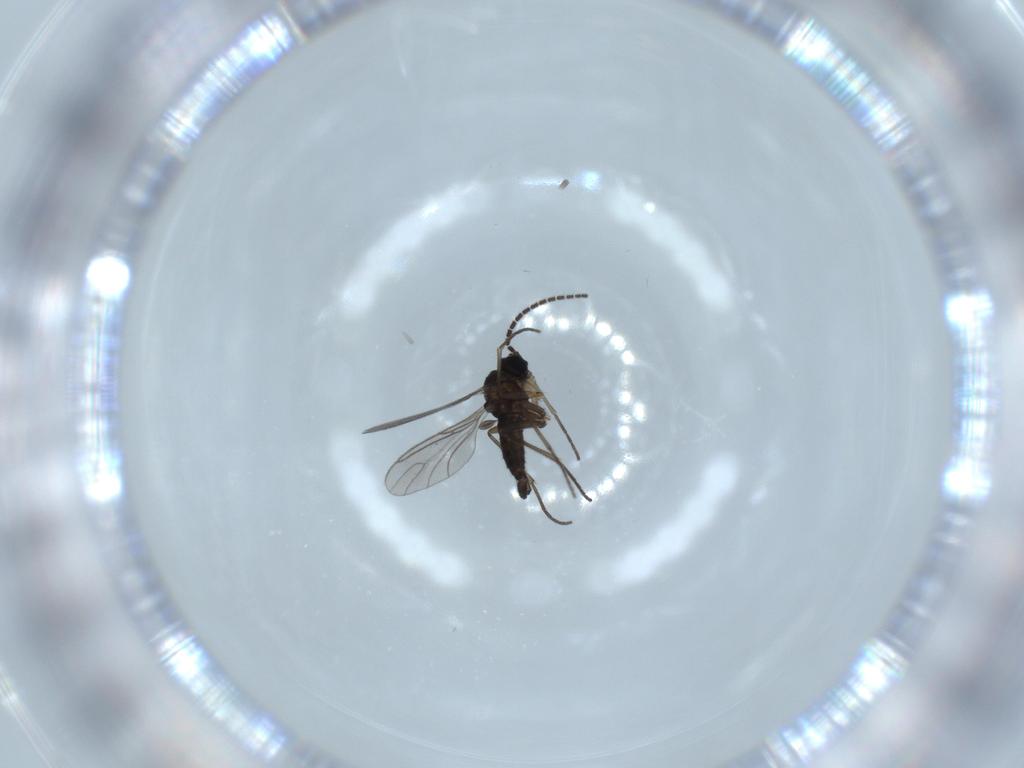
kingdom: Animalia
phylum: Arthropoda
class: Insecta
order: Diptera
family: Sciaridae
